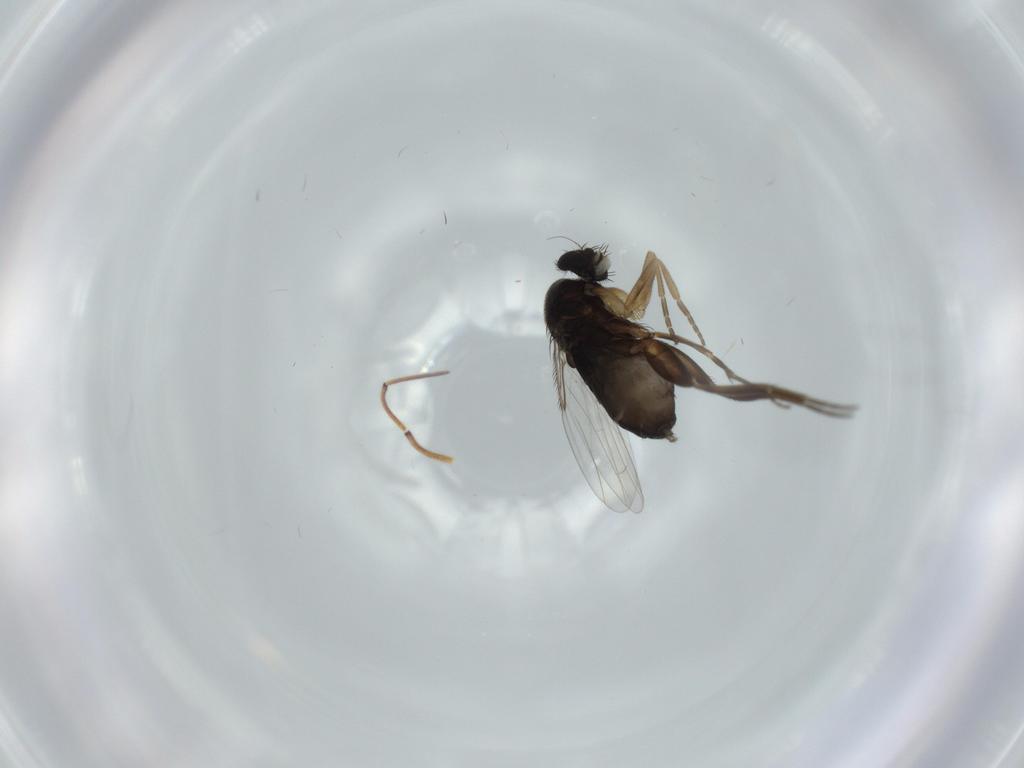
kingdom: Animalia
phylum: Arthropoda
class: Insecta
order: Diptera
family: Phoridae
